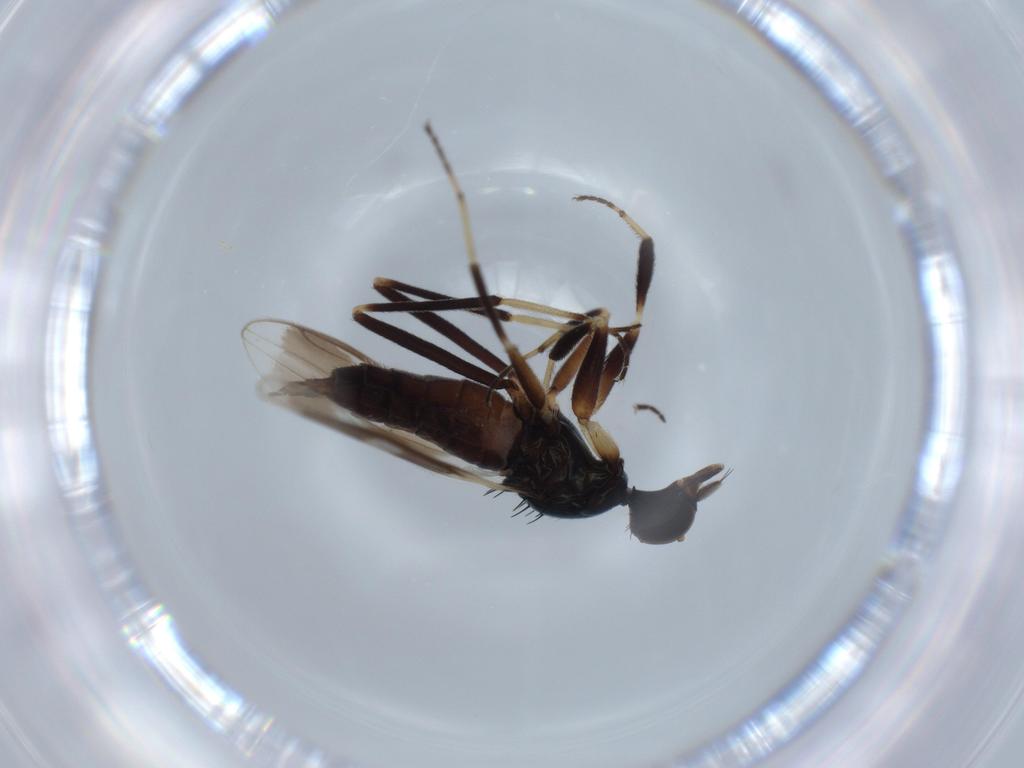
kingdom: Animalia
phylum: Arthropoda
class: Insecta
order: Diptera
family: Hybotidae
